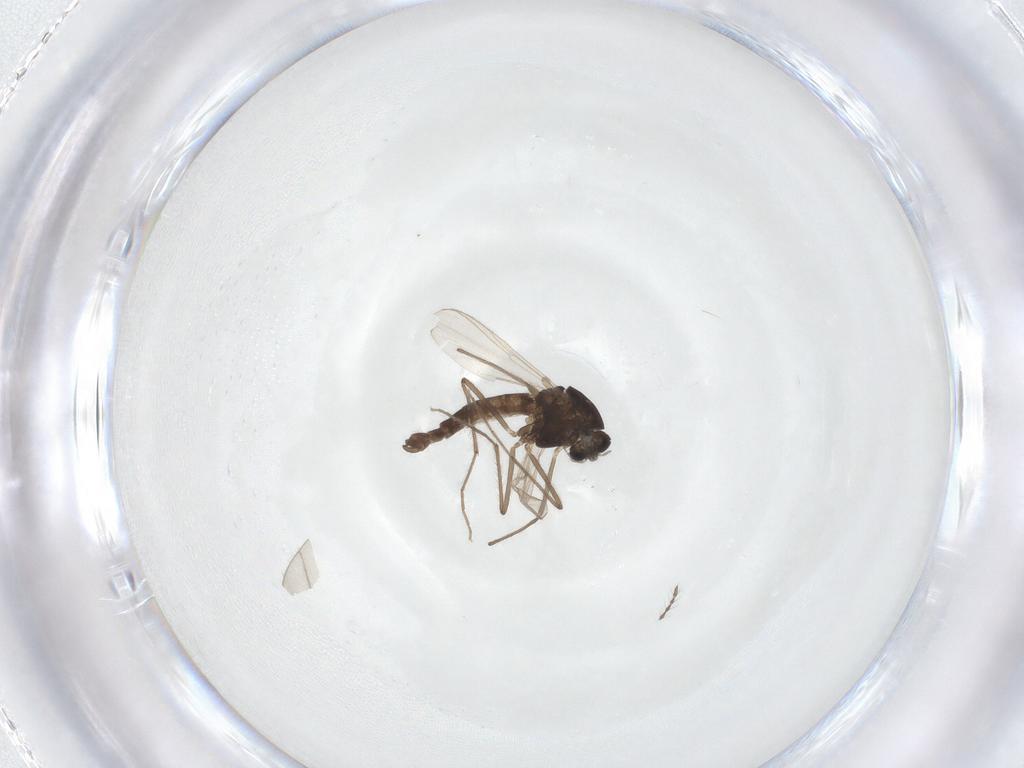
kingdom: Animalia
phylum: Arthropoda
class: Insecta
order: Diptera
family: Chironomidae
